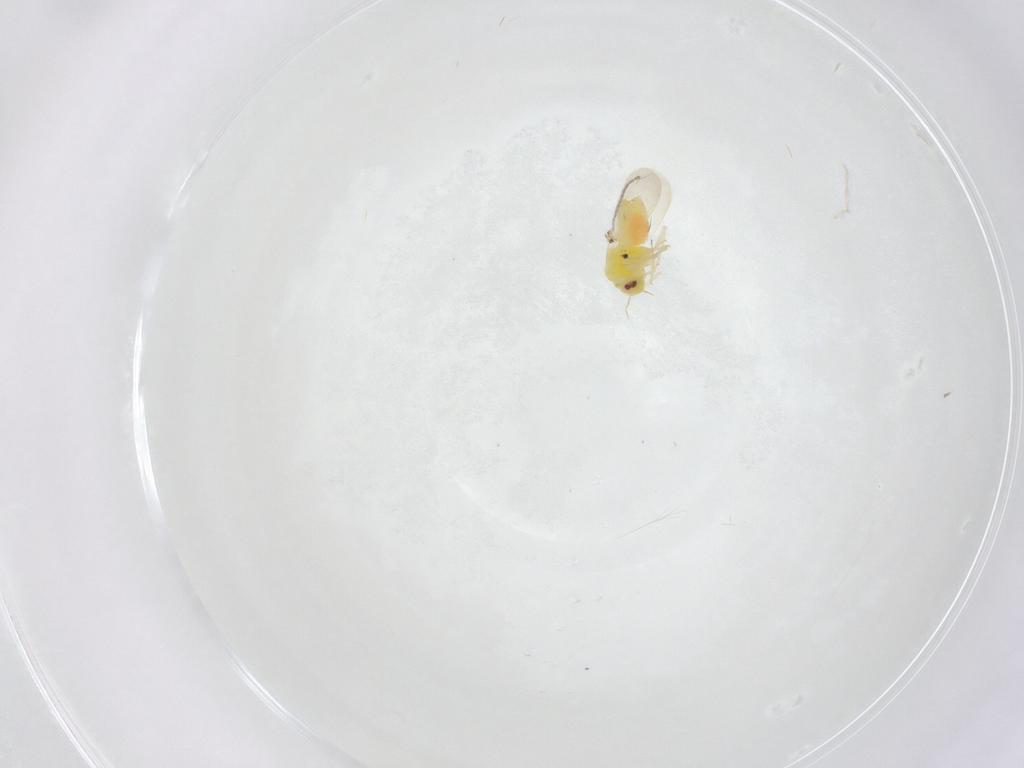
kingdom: Animalia
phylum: Arthropoda
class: Insecta
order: Hemiptera
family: Aleyrodidae
